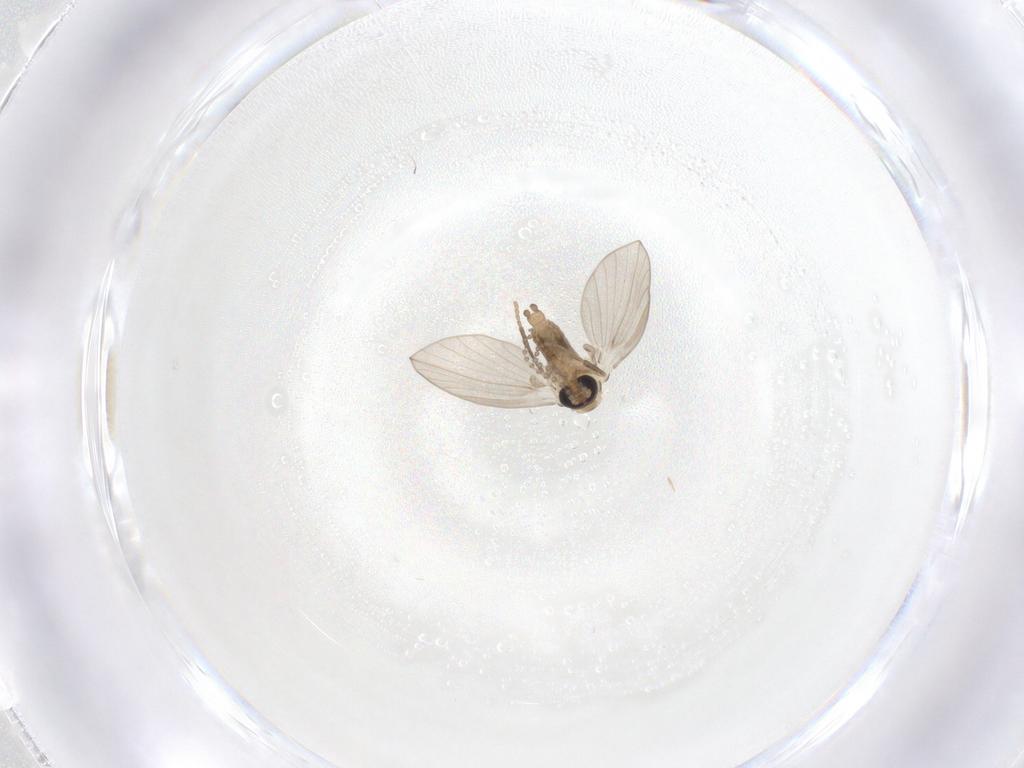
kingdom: Animalia
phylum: Arthropoda
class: Insecta
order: Diptera
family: Psychodidae
